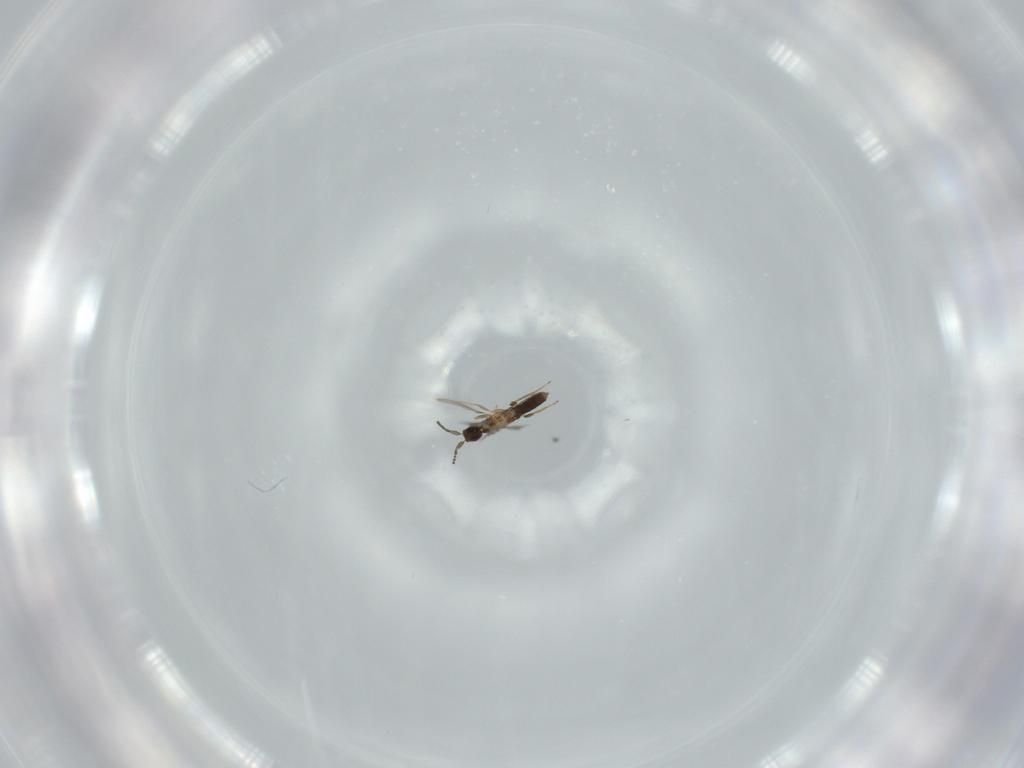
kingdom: Animalia
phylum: Arthropoda
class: Insecta
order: Hymenoptera
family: Mymaridae
